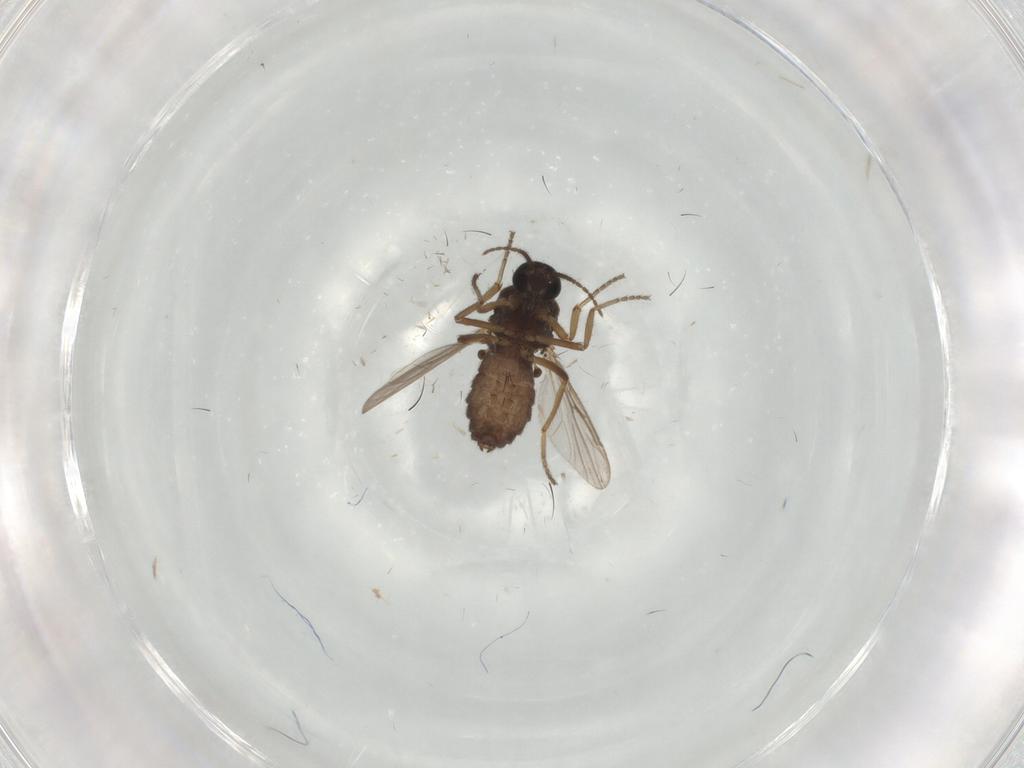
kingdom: Animalia
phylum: Arthropoda
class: Insecta
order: Diptera
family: Ceratopogonidae
